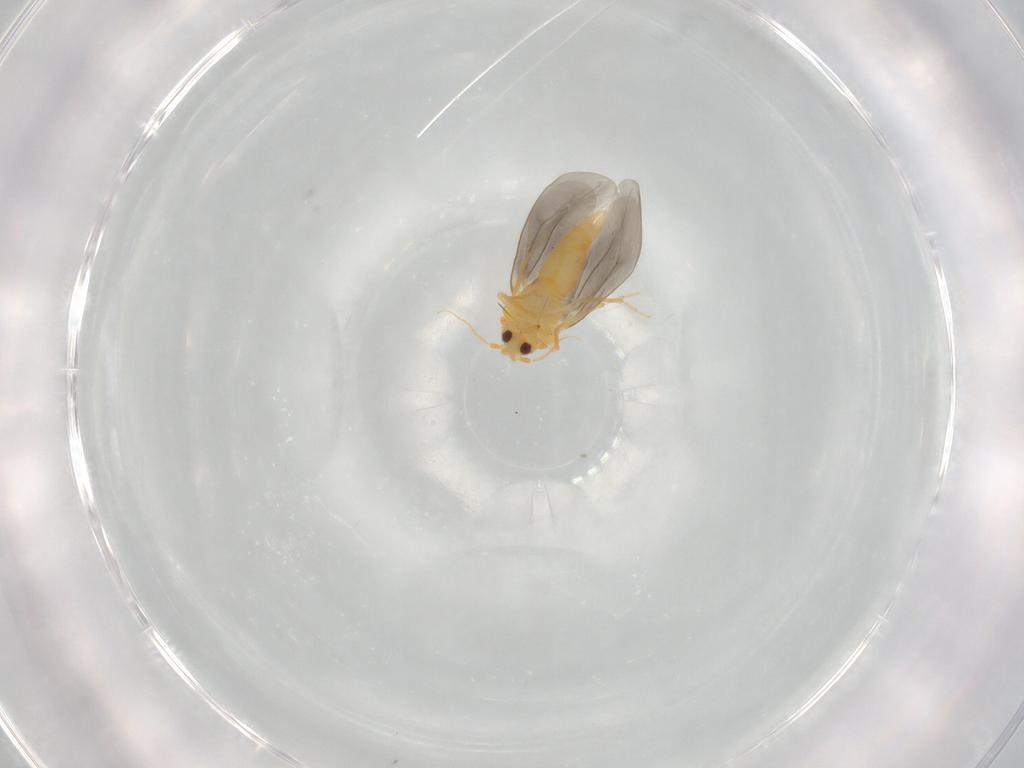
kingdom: Animalia
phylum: Arthropoda
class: Insecta
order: Hemiptera
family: Aleyrodidae
